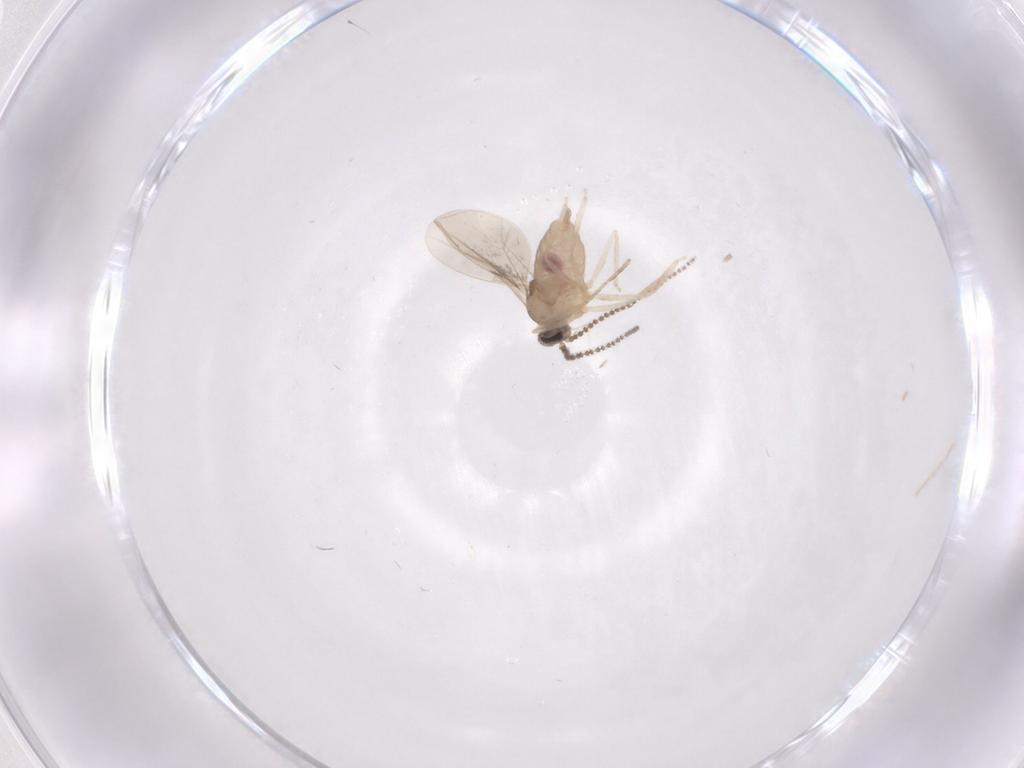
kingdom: Animalia
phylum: Arthropoda
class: Insecta
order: Diptera
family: Cecidomyiidae
